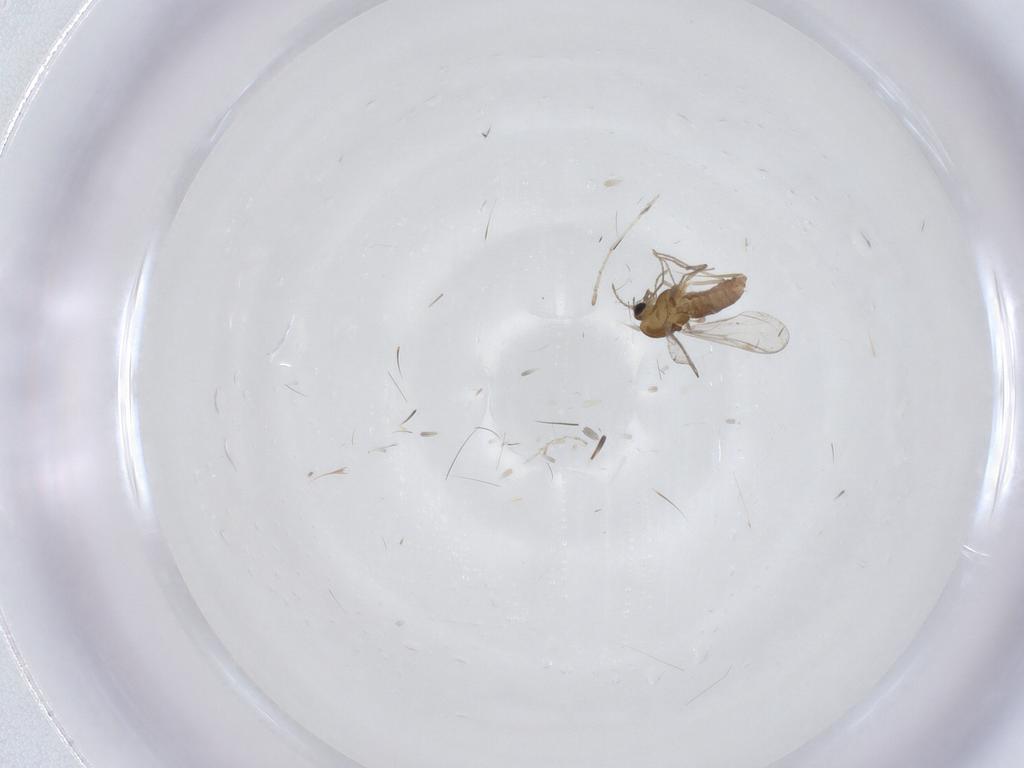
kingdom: Animalia
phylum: Arthropoda
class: Insecta
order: Diptera
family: Chironomidae
